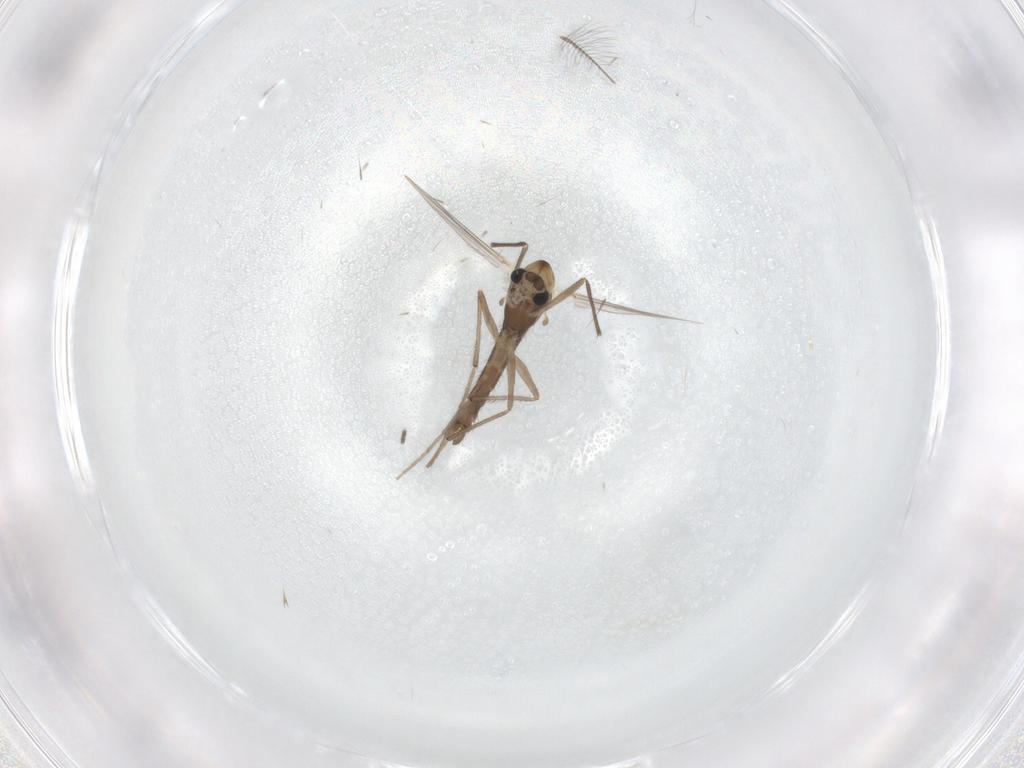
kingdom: Animalia
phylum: Arthropoda
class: Insecta
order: Diptera
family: Chironomidae
